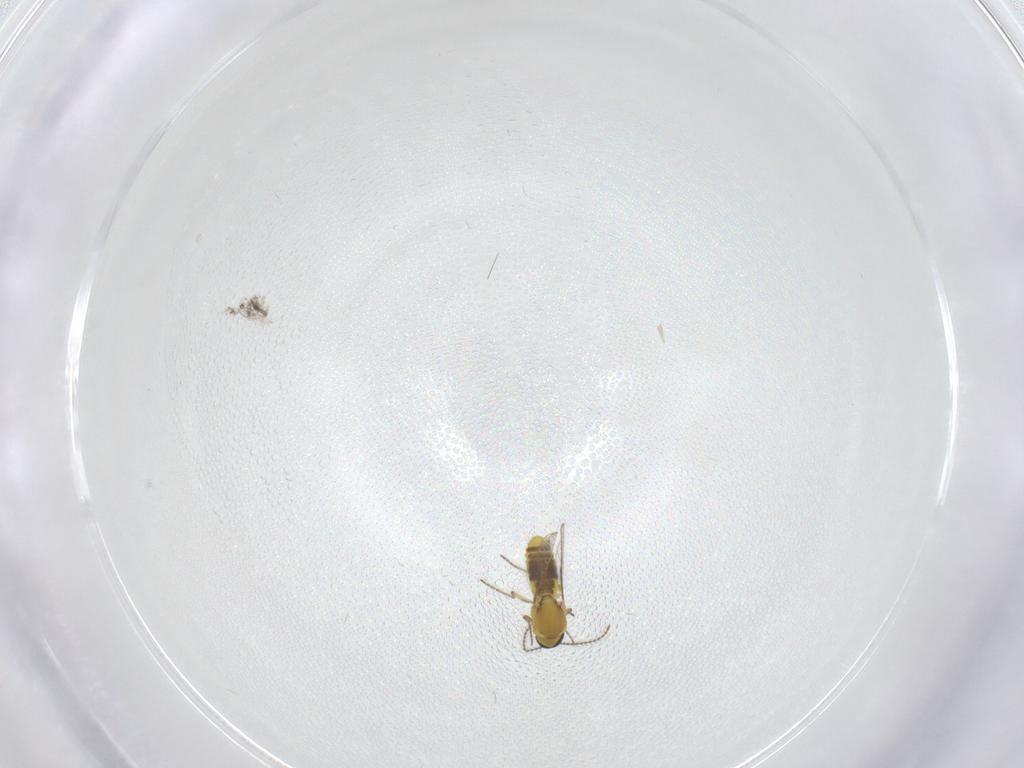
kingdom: Animalia
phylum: Arthropoda
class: Insecta
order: Diptera
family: Ceratopogonidae
